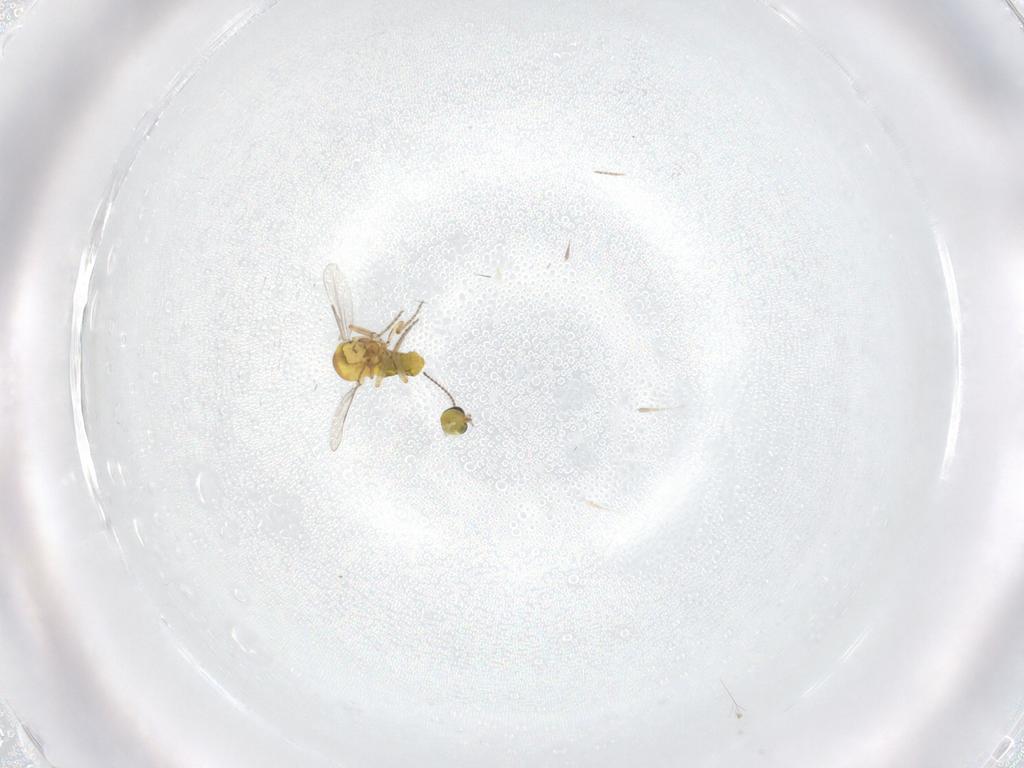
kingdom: Animalia
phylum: Arthropoda
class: Insecta
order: Diptera
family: Ceratopogonidae
